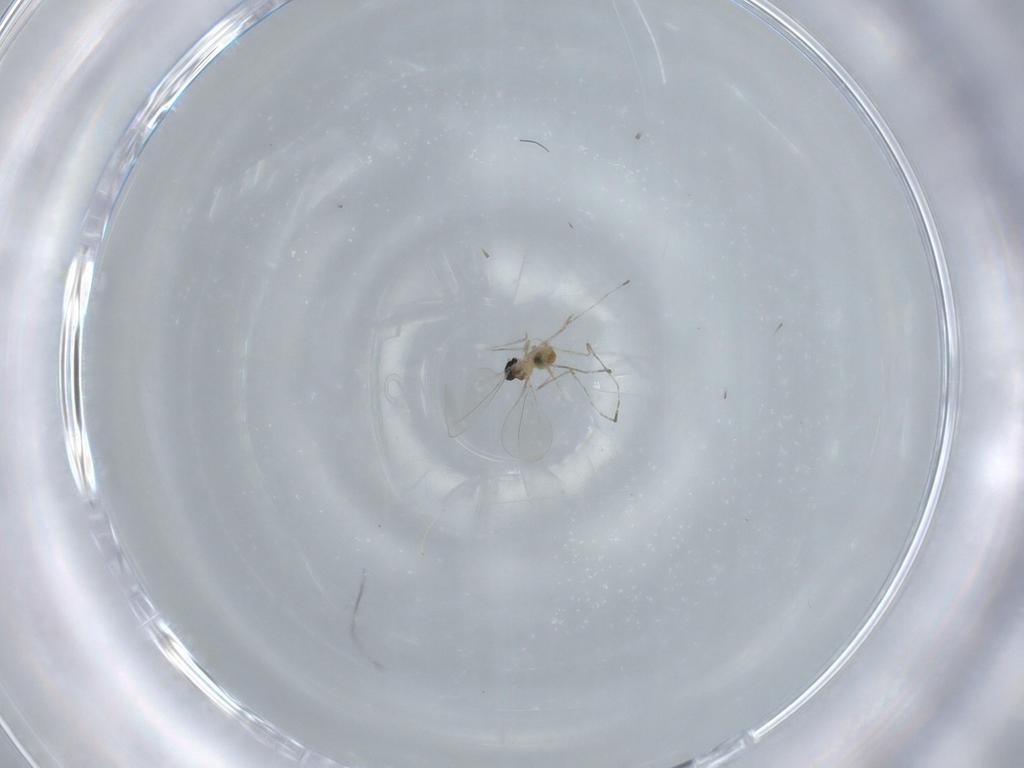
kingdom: Animalia
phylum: Arthropoda
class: Insecta
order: Diptera
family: Cecidomyiidae
